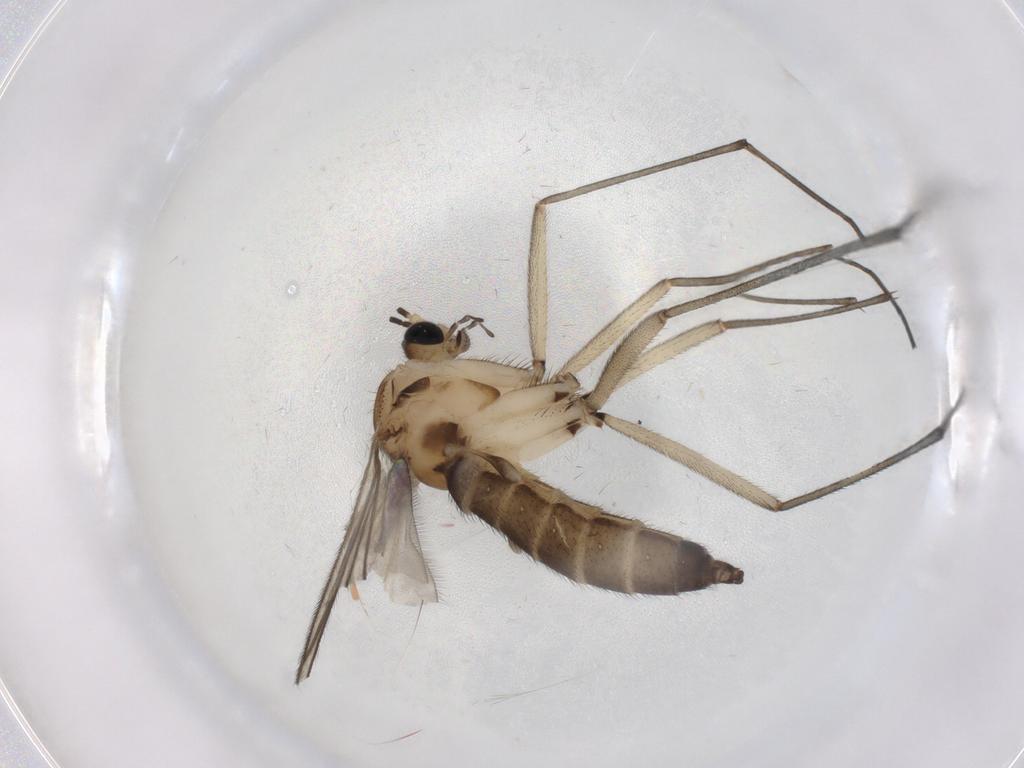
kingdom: Animalia
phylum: Arthropoda
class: Insecta
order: Diptera
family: Sciaridae
